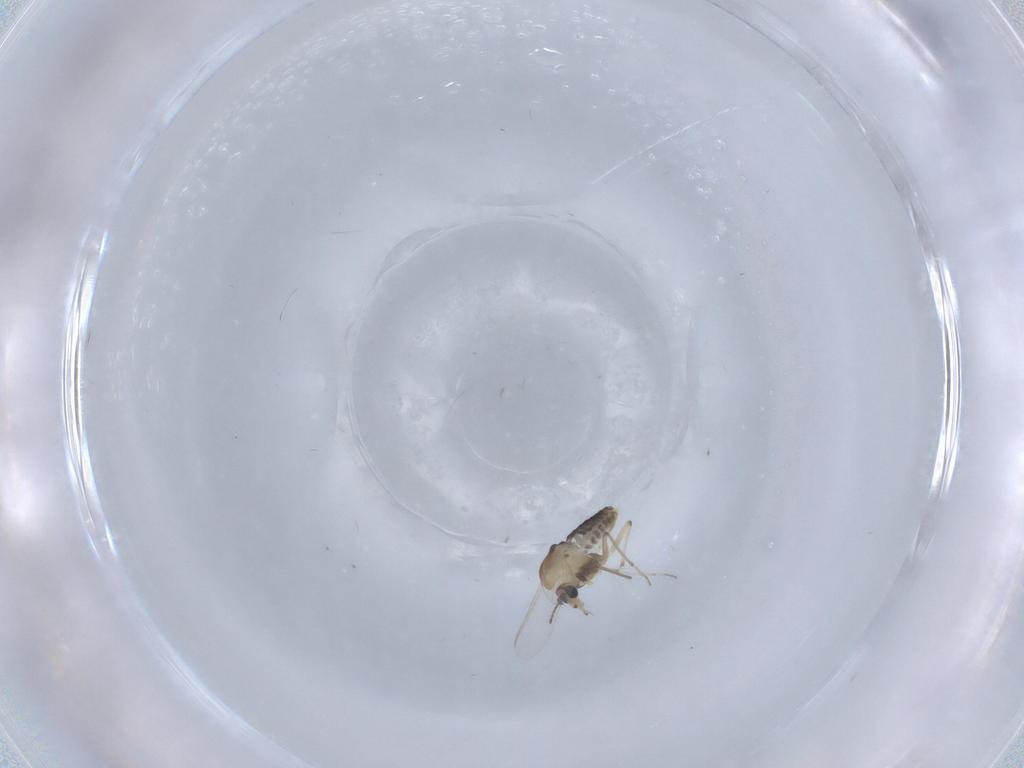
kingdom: Animalia
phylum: Arthropoda
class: Insecta
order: Diptera
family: Chironomidae
